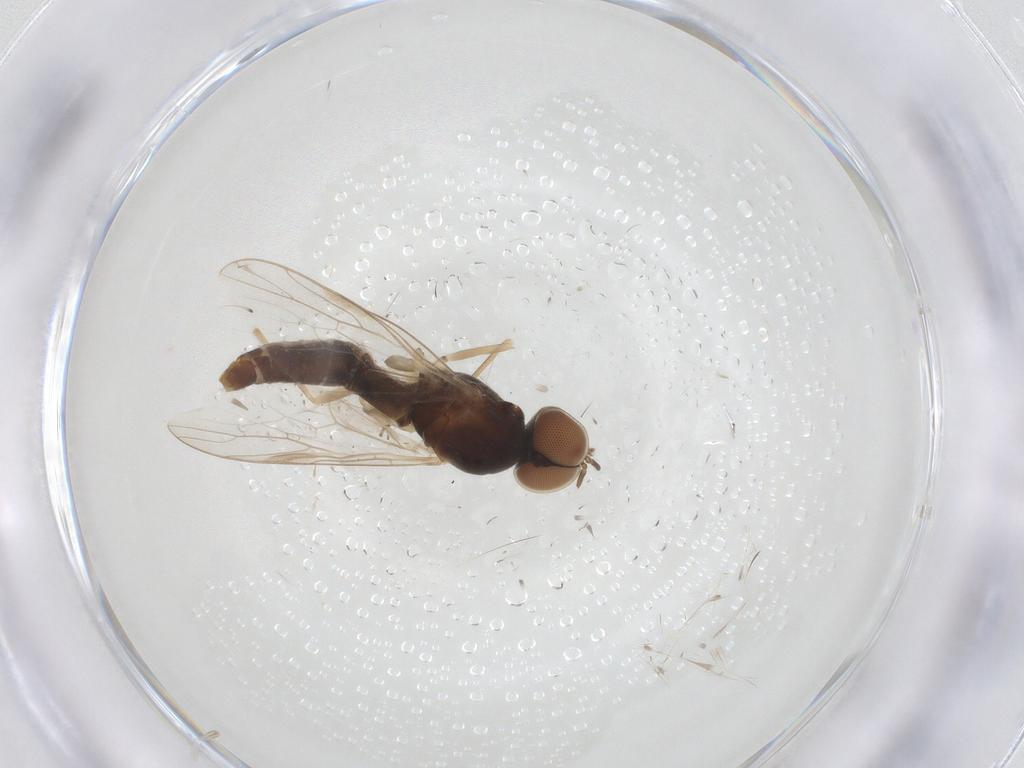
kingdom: Animalia
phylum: Arthropoda
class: Insecta
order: Diptera
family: Scenopinidae
